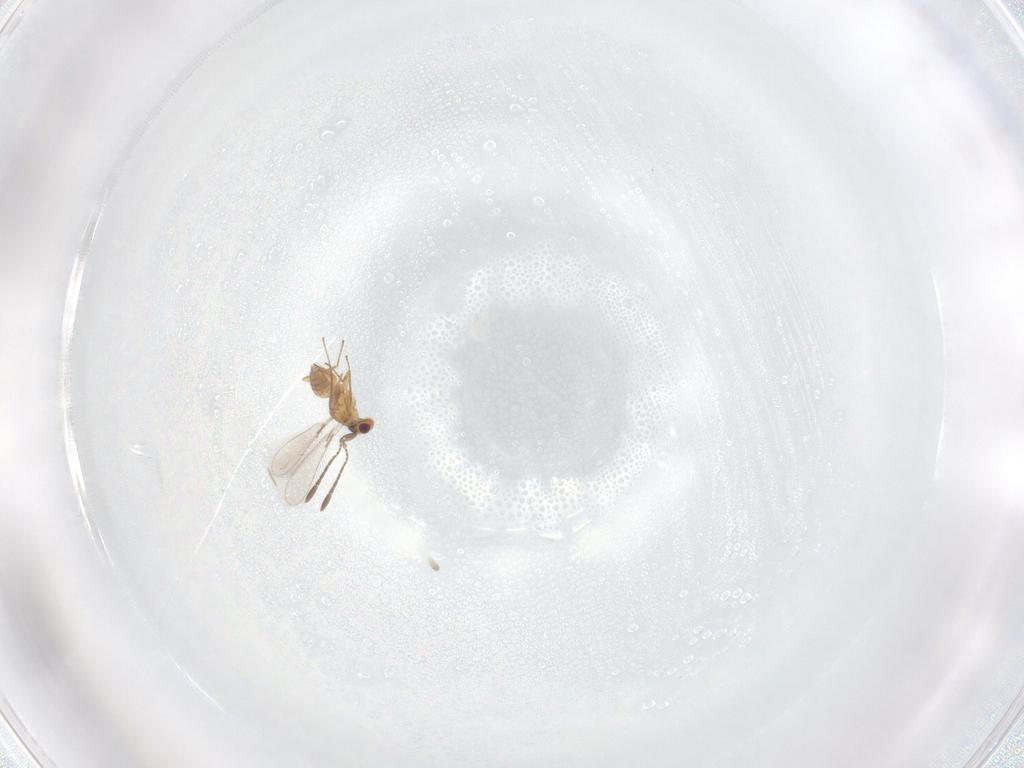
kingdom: Animalia
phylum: Arthropoda
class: Insecta
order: Hymenoptera
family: Mymaridae
